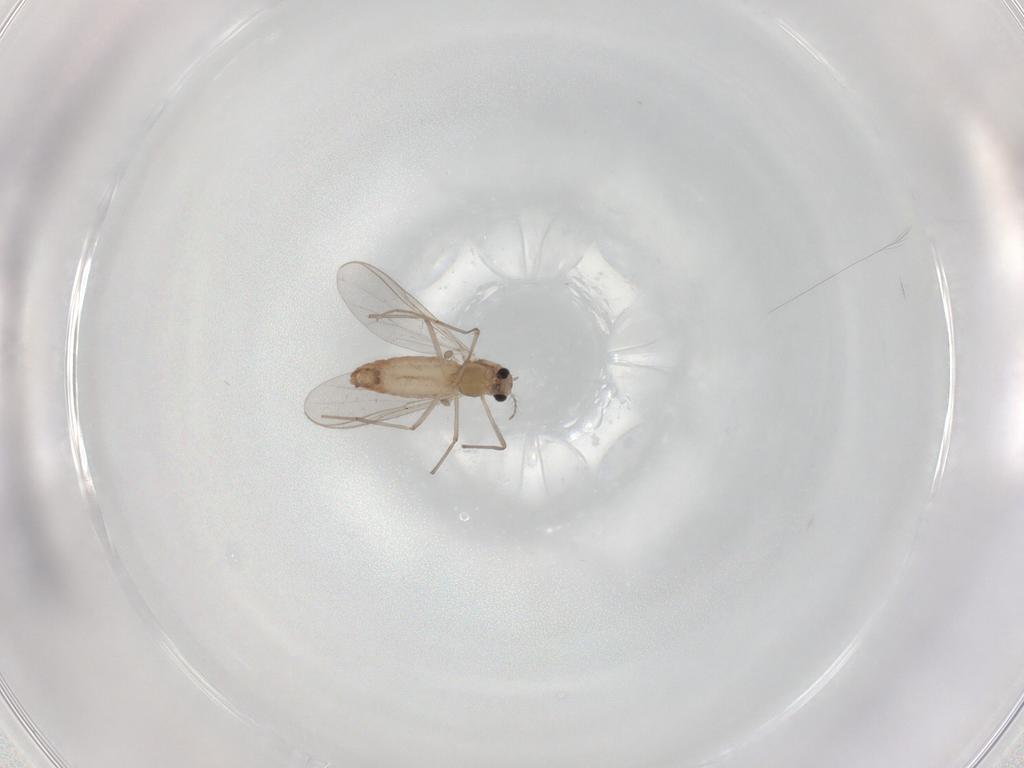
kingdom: Animalia
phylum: Arthropoda
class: Insecta
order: Diptera
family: Chironomidae
